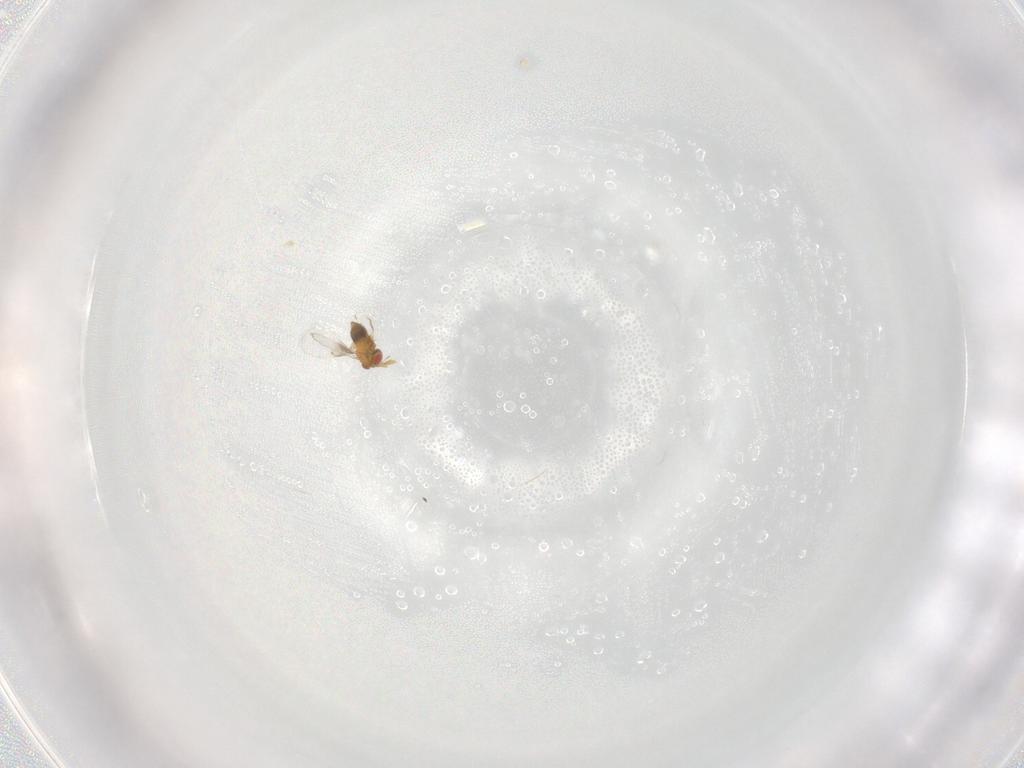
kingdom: Animalia
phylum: Arthropoda
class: Insecta
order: Hymenoptera
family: Trichogrammatidae
